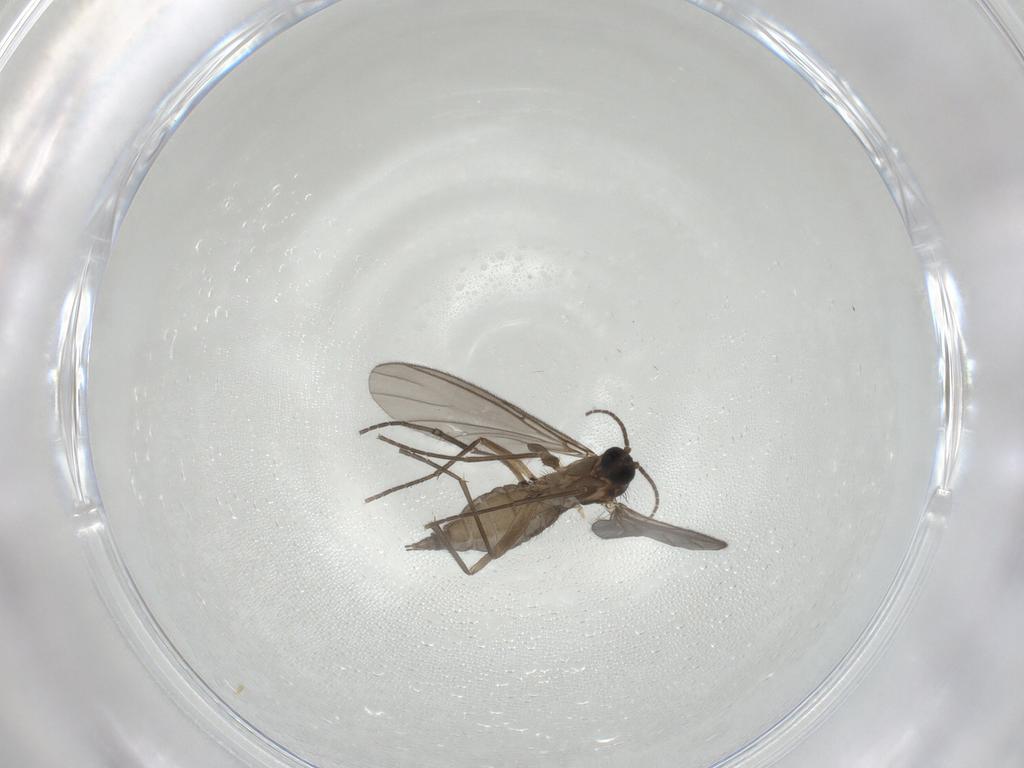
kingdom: Animalia
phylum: Arthropoda
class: Insecta
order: Diptera
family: Sciaridae
